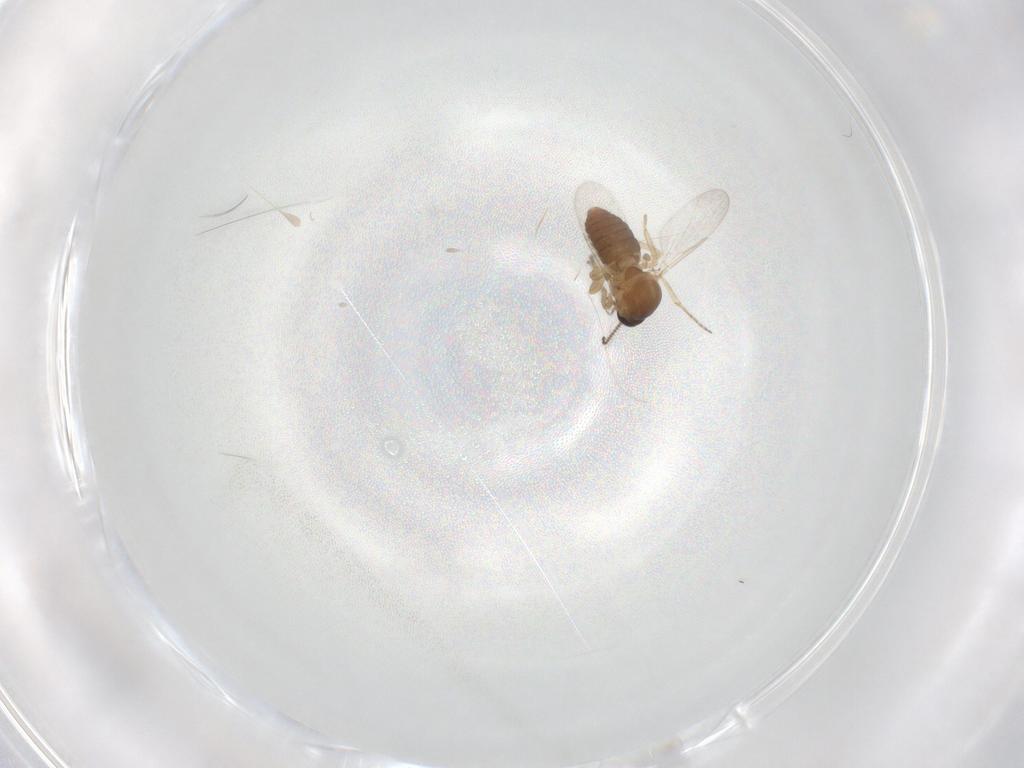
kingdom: Animalia
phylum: Arthropoda
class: Insecta
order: Diptera
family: Ceratopogonidae
